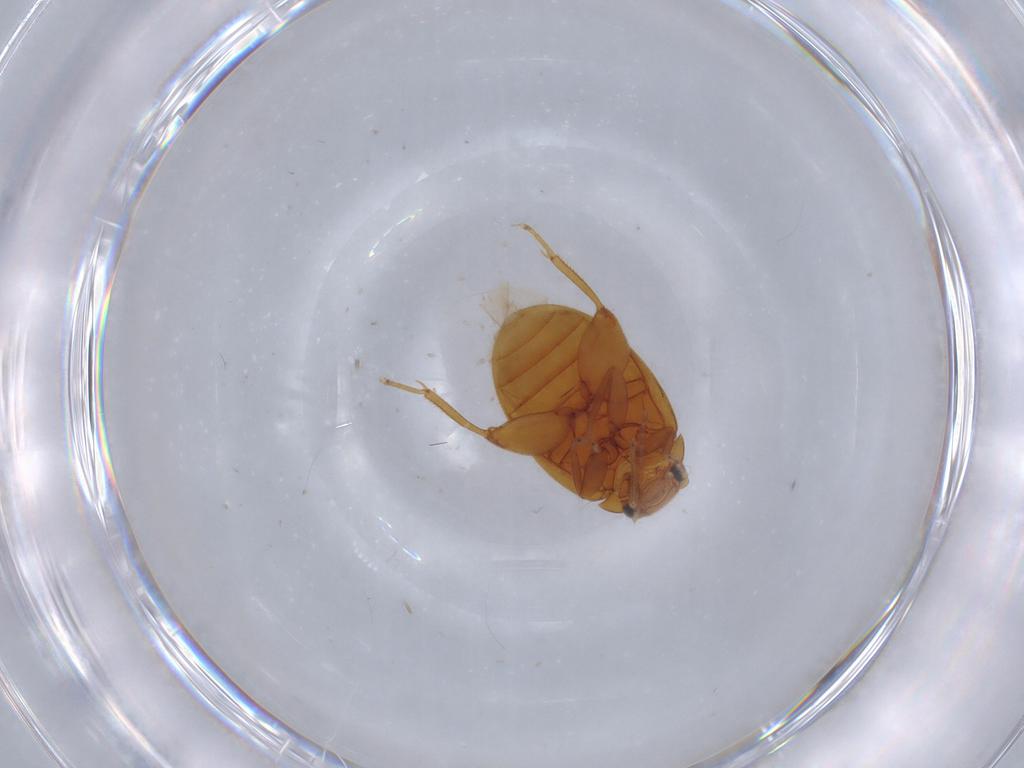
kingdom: Animalia
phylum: Arthropoda
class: Insecta
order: Coleoptera
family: Scirtidae
